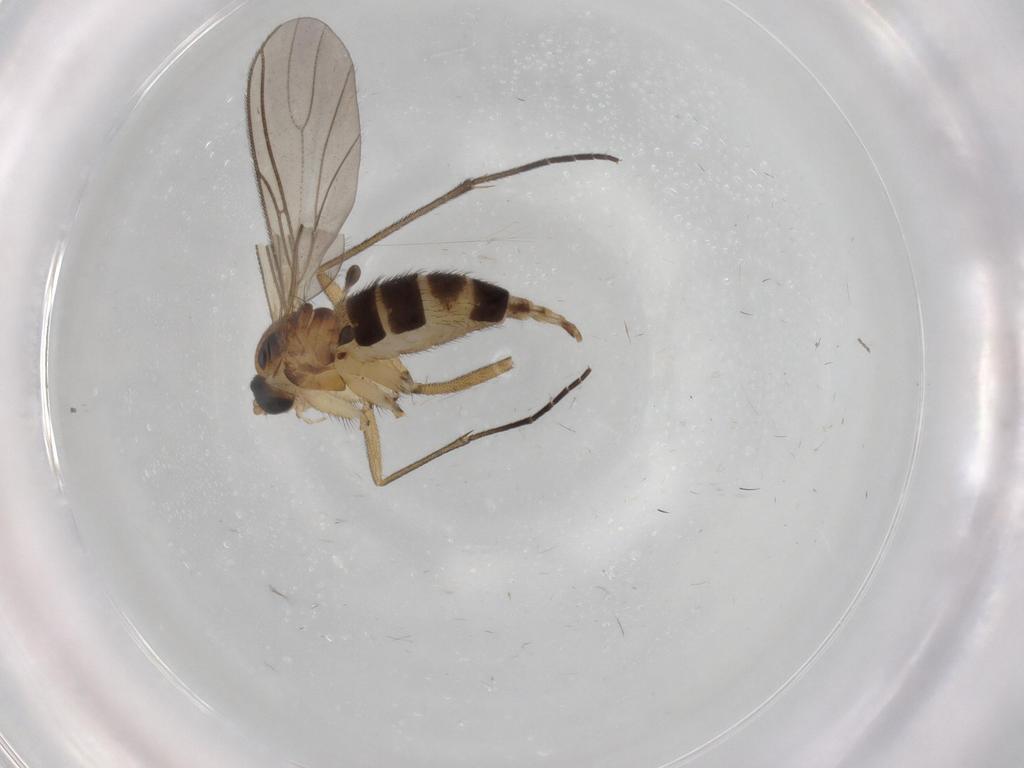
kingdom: Animalia
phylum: Arthropoda
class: Insecta
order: Diptera
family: Sciaridae
